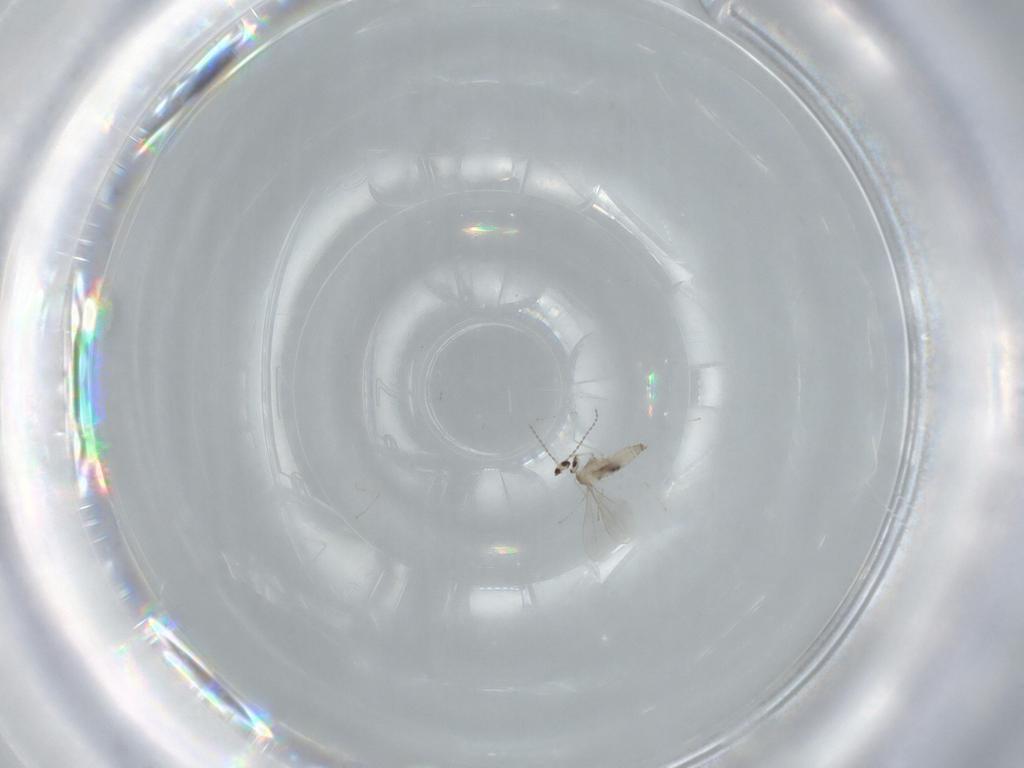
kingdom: Animalia
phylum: Arthropoda
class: Insecta
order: Diptera
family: Cecidomyiidae
